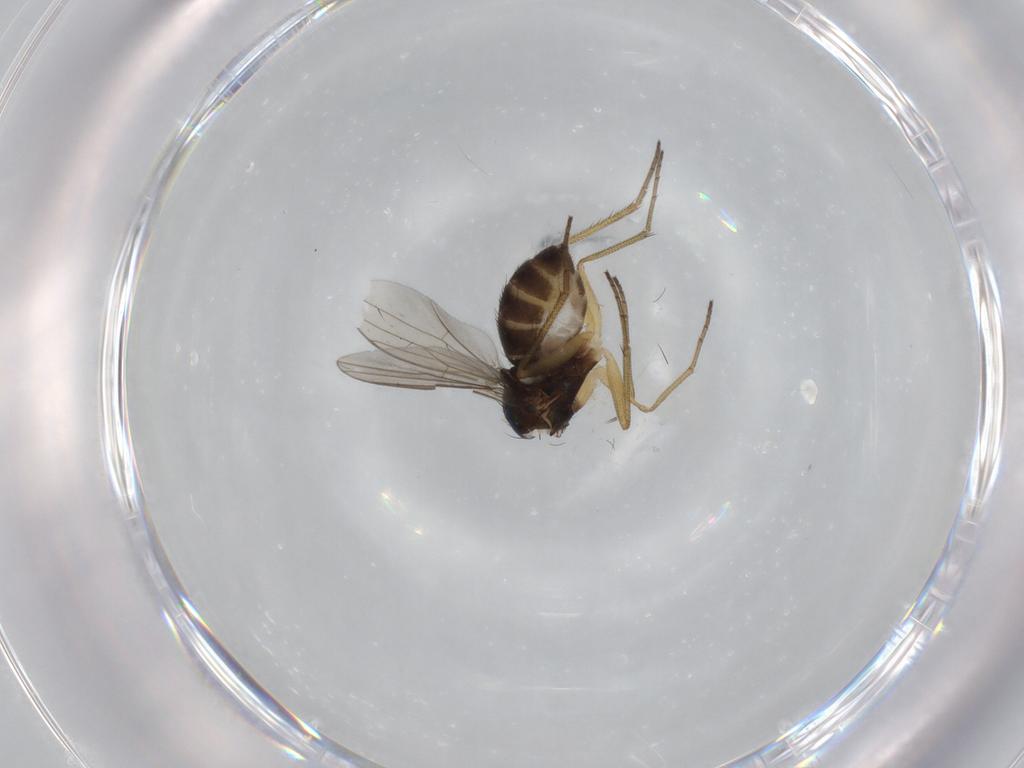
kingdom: Animalia
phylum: Arthropoda
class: Insecta
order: Diptera
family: Dolichopodidae
